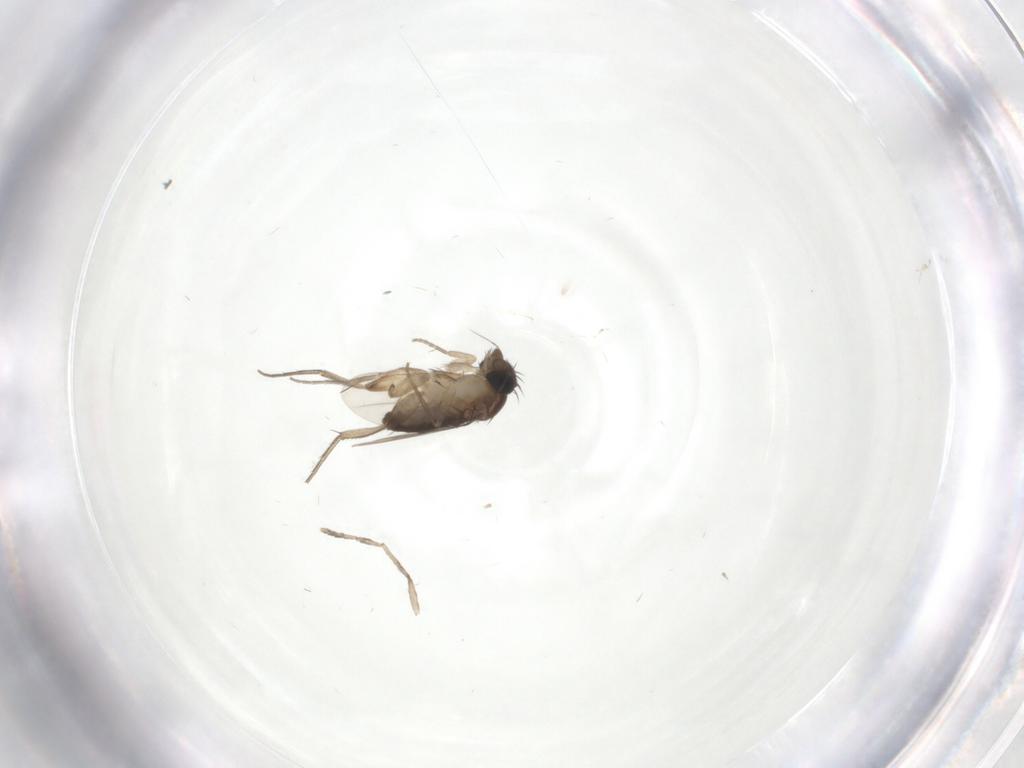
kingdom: Animalia
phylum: Arthropoda
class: Insecta
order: Diptera
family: Phoridae
